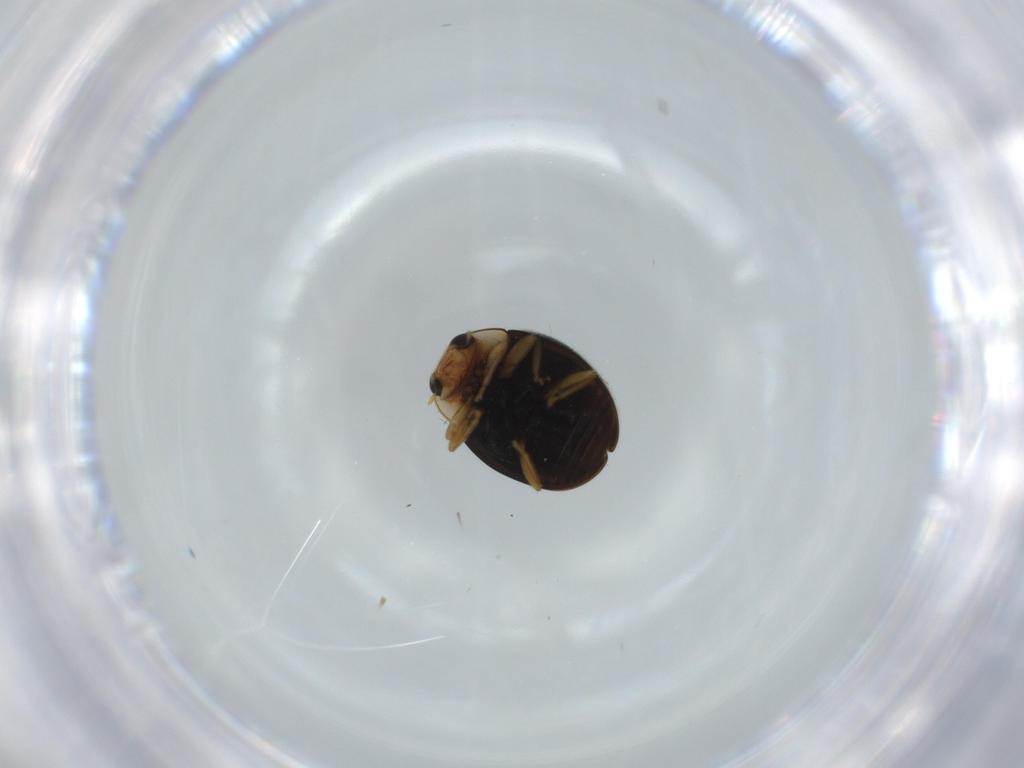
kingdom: Animalia
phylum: Arthropoda
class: Insecta
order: Coleoptera
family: Coccinellidae
